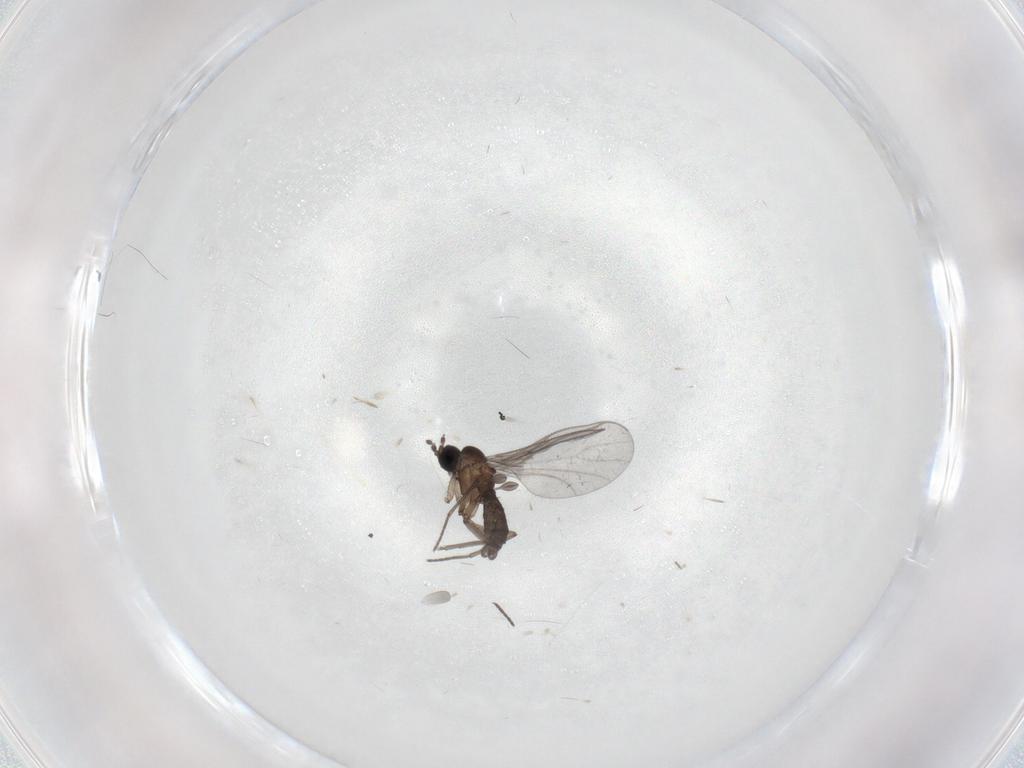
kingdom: Animalia
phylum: Arthropoda
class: Insecta
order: Diptera
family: Sciaridae
